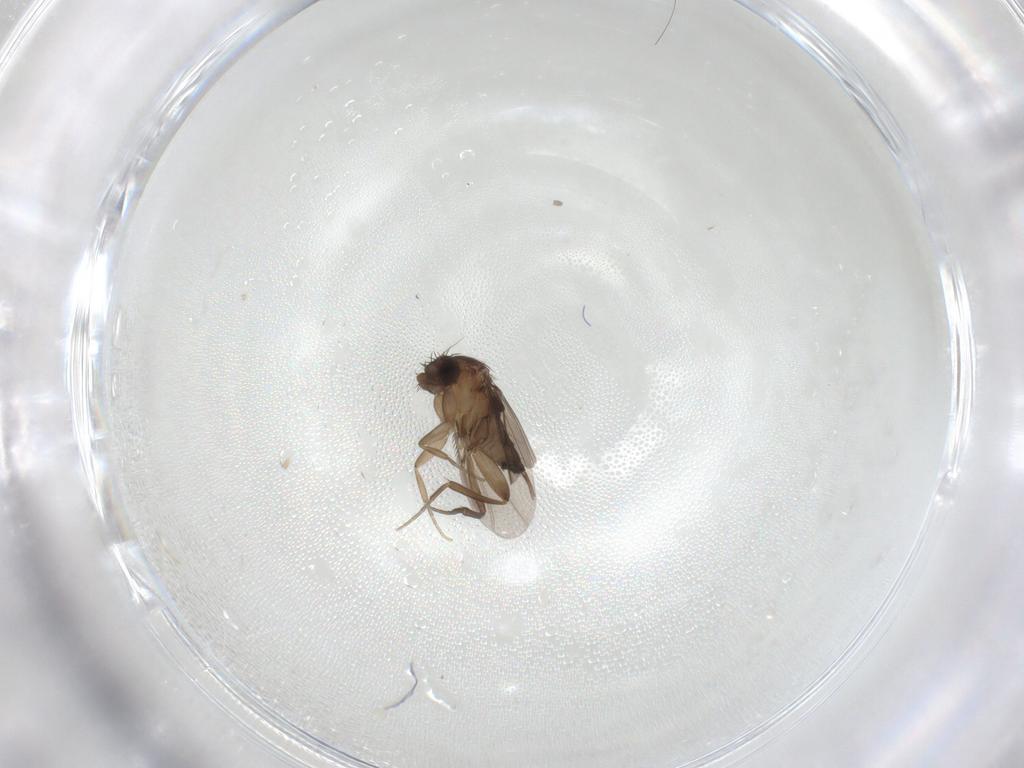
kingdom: Animalia
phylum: Arthropoda
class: Insecta
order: Diptera
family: Phoridae
